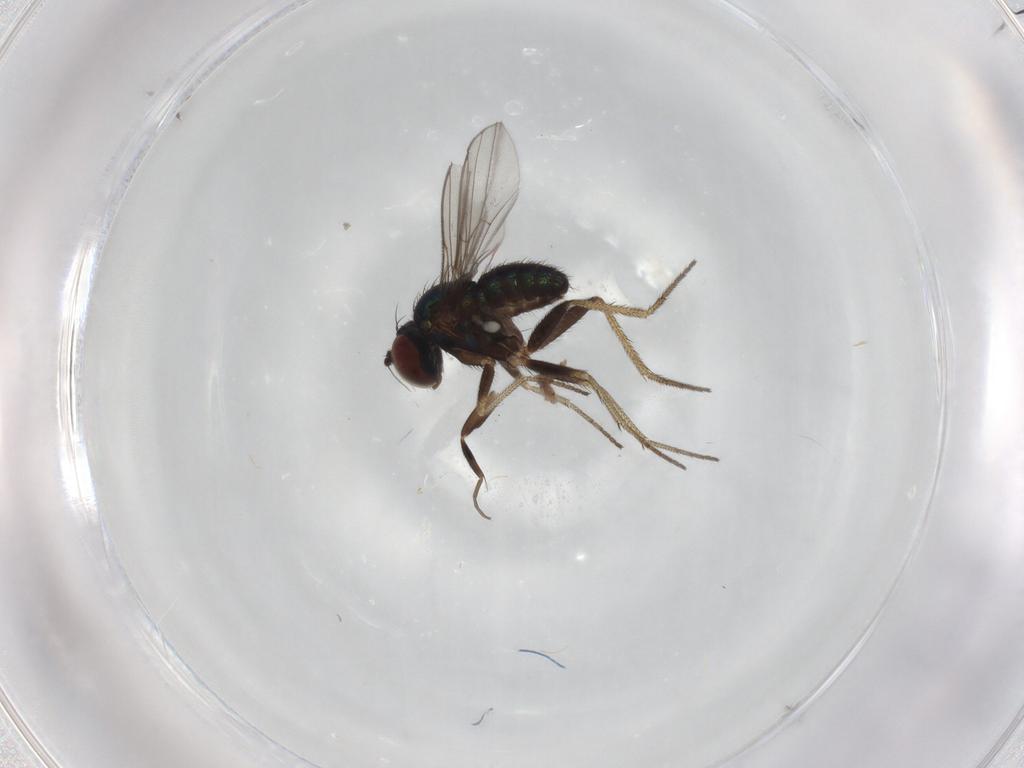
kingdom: Animalia
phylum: Arthropoda
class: Insecta
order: Diptera
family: Dolichopodidae
